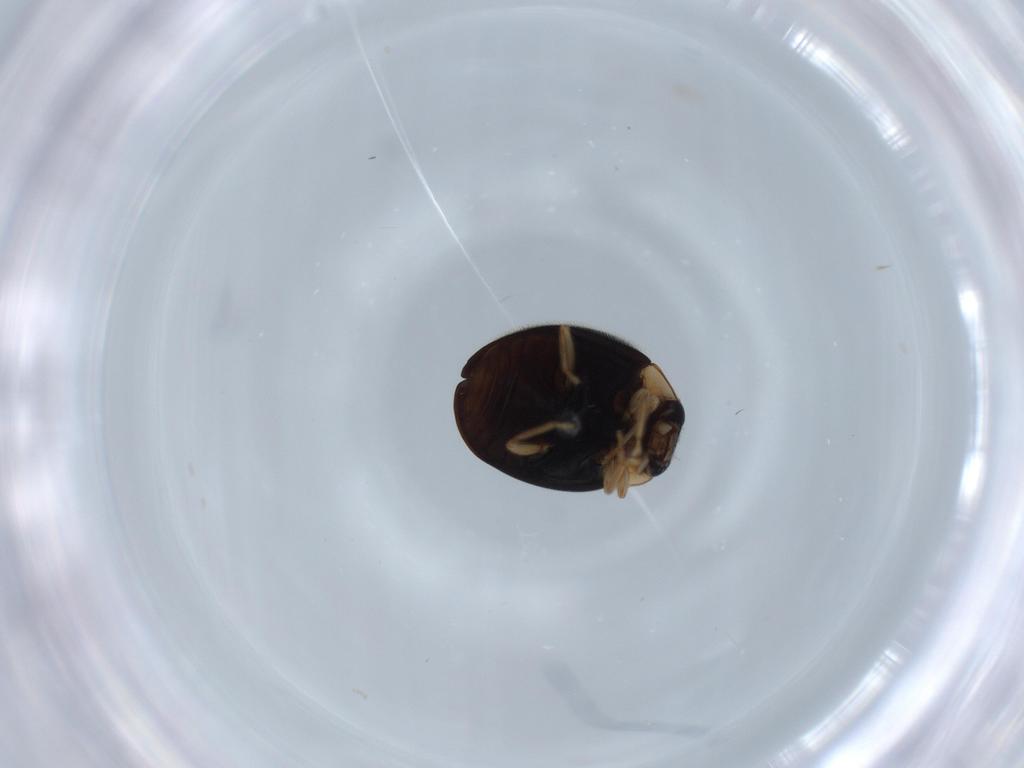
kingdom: Animalia
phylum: Arthropoda
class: Insecta
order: Coleoptera
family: Coccinellidae
